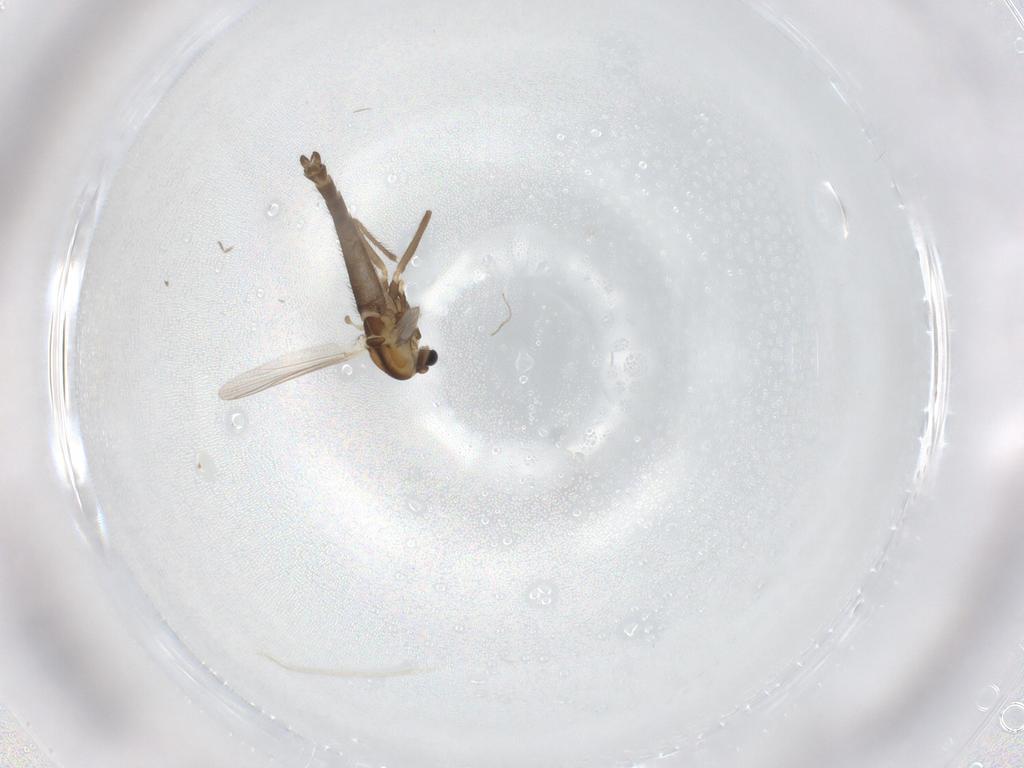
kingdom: Animalia
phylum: Arthropoda
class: Insecta
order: Diptera
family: Chironomidae
